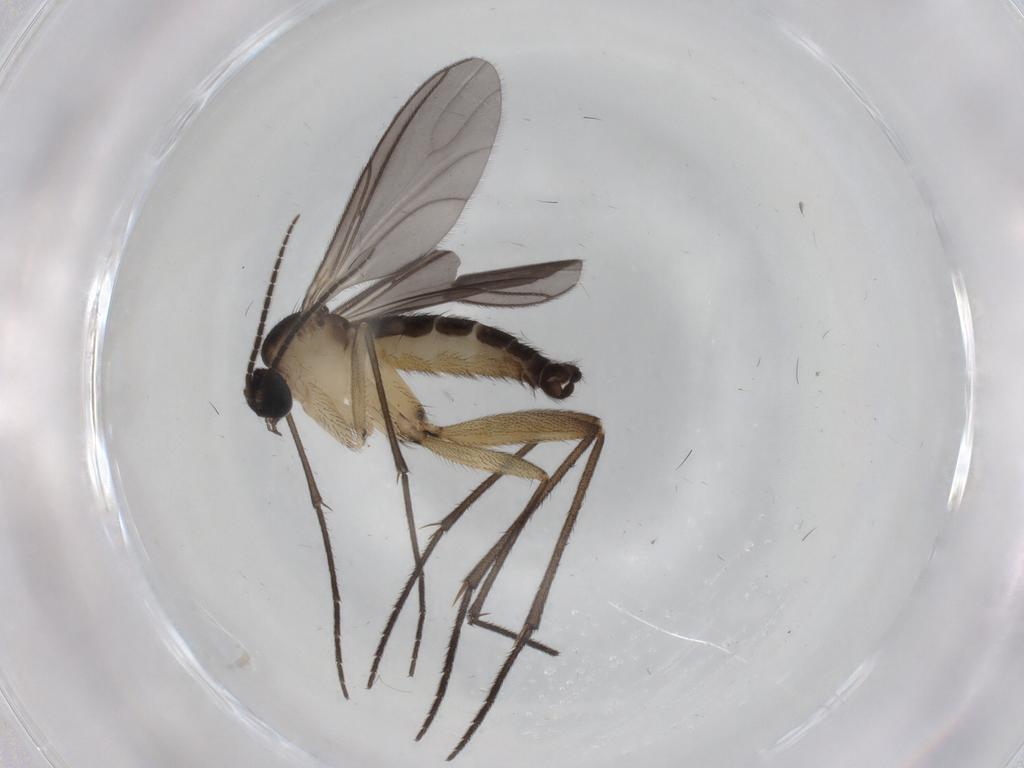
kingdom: Animalia
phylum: Arthropoda
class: Insecta
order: Diptera
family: Sciaridae
